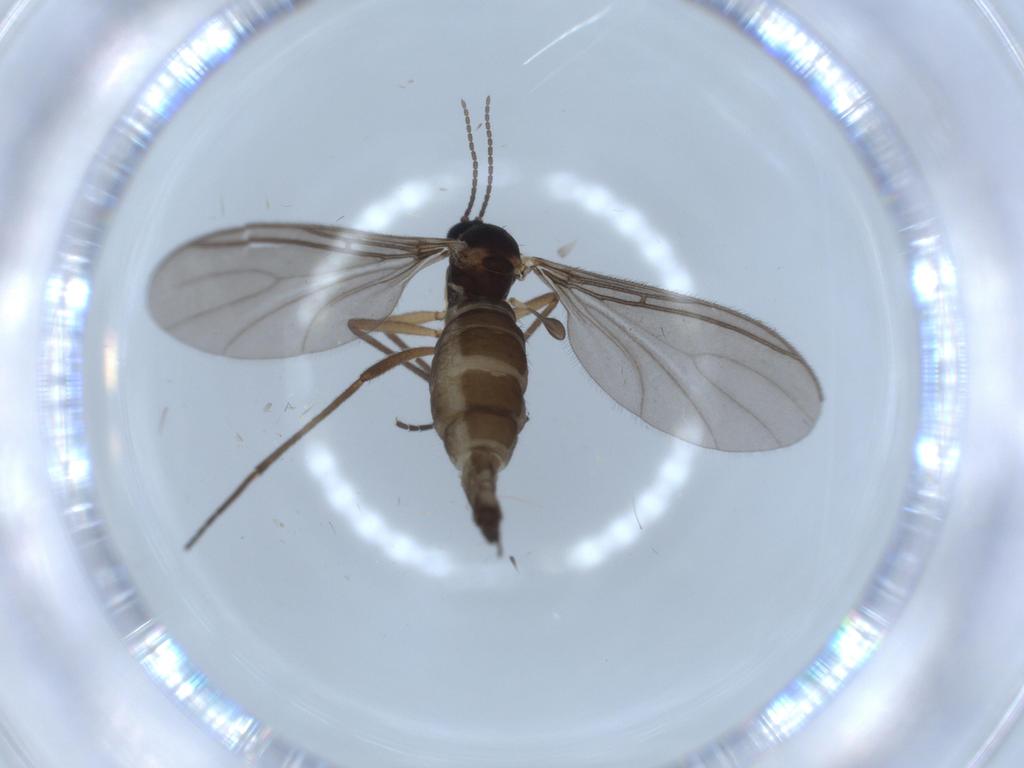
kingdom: Animalia
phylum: Arthropoda
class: Insecta
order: Diptera
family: Sciaridae
